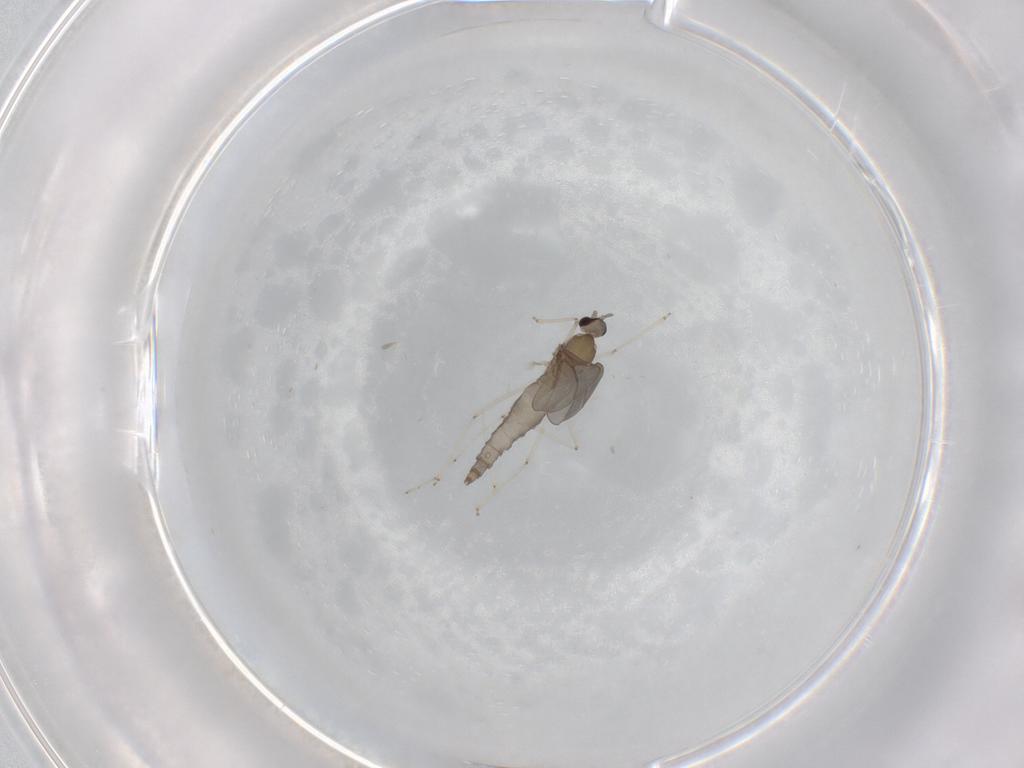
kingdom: Animalia
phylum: Arthropoda
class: Insecta
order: Diptera
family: Cecidomyiidae
